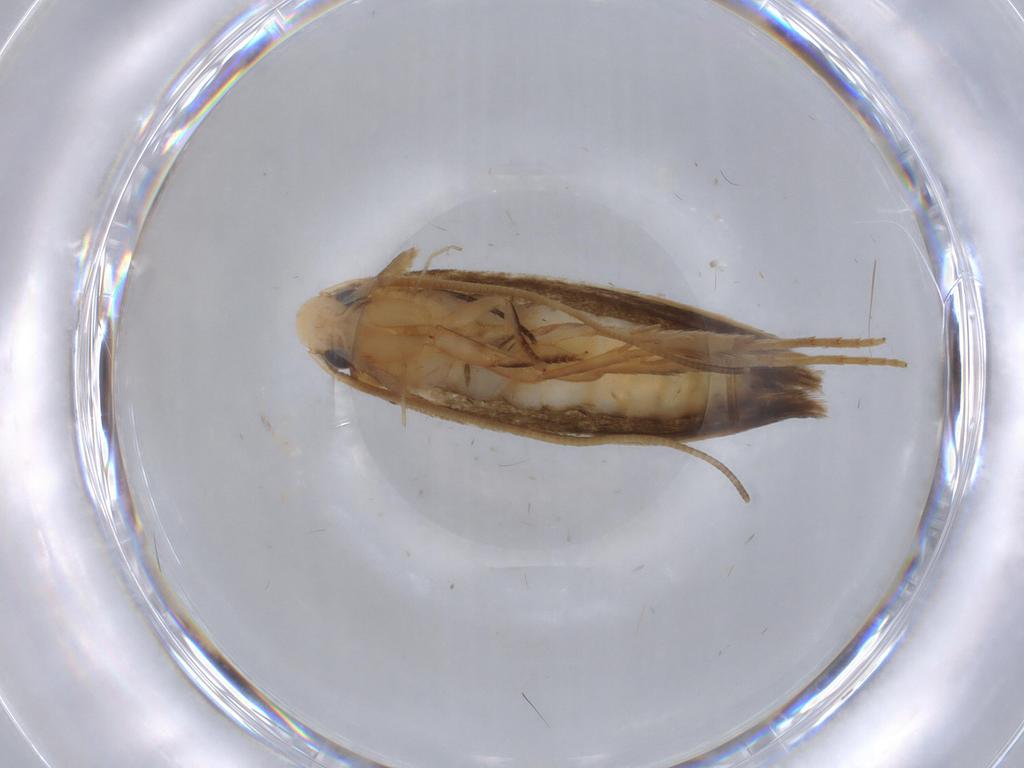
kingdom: Animalia
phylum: Arthropoda
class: Insecta
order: Lepidoptera
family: Tineidae
